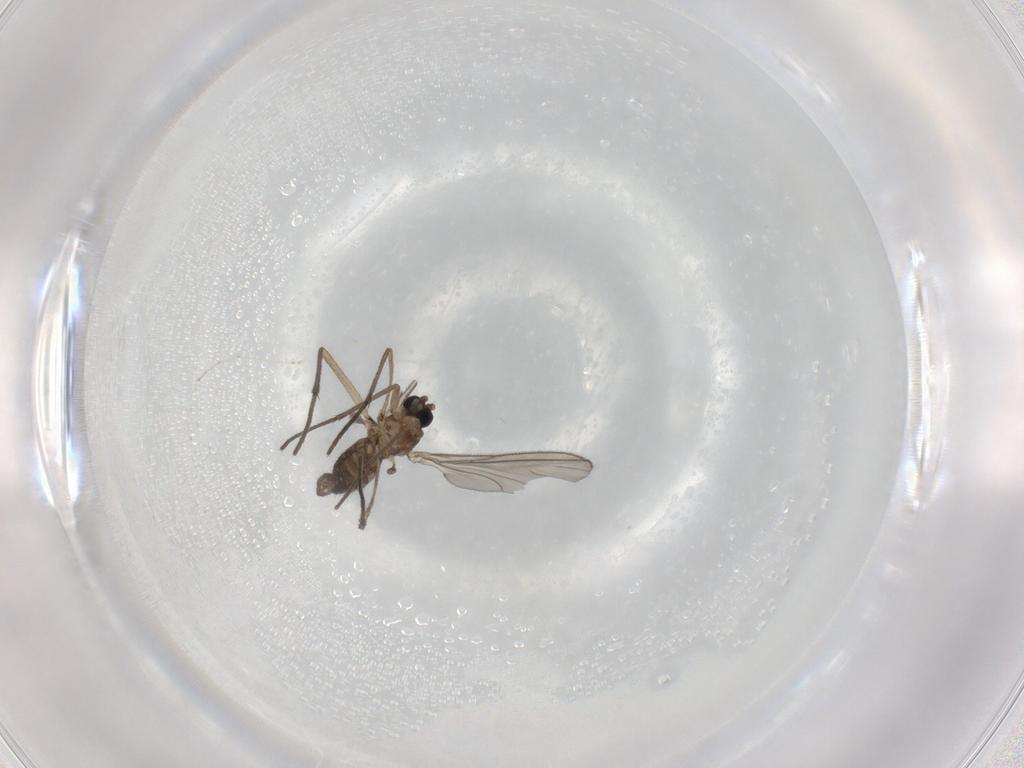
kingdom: Animalia
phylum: Arthropoda
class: Insecta
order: Diptera
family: Sciaridae
